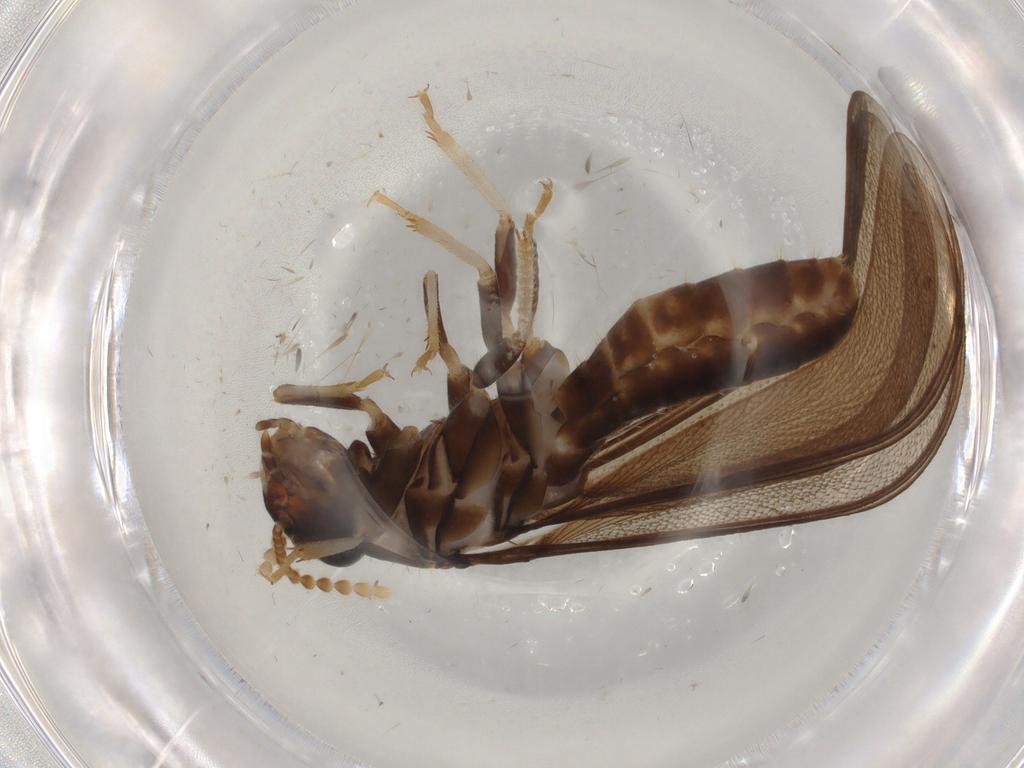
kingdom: Animalia
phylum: Arthropoda
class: Insecta
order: Blattodea
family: Kalotermitidae
